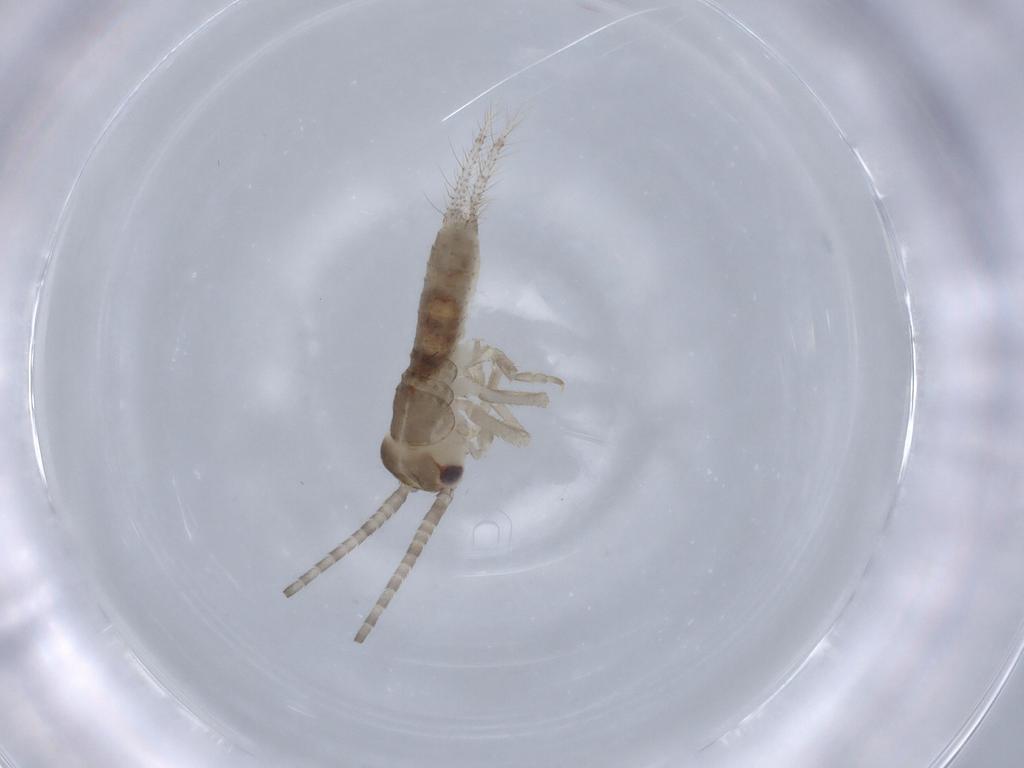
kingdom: Animalia
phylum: Arthropoda
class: Insecta
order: Orthoptera
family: Gryllidae
